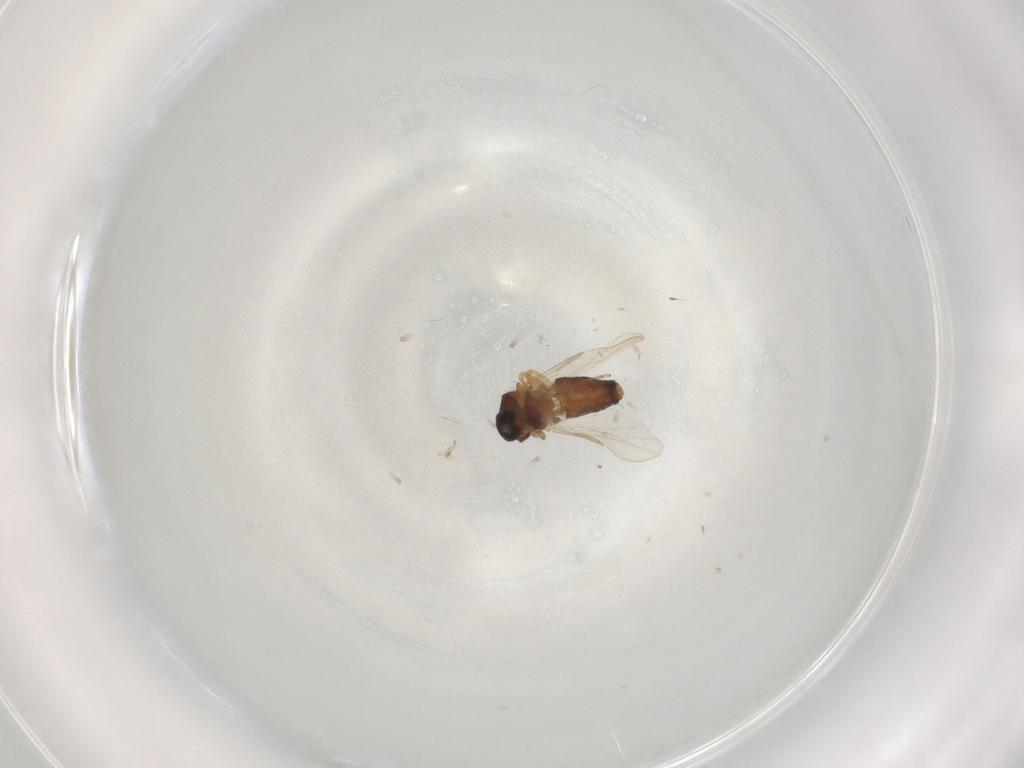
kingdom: Animalia
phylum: Arthropoda
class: Insecta
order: Diptera
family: Ceratopogonidae
